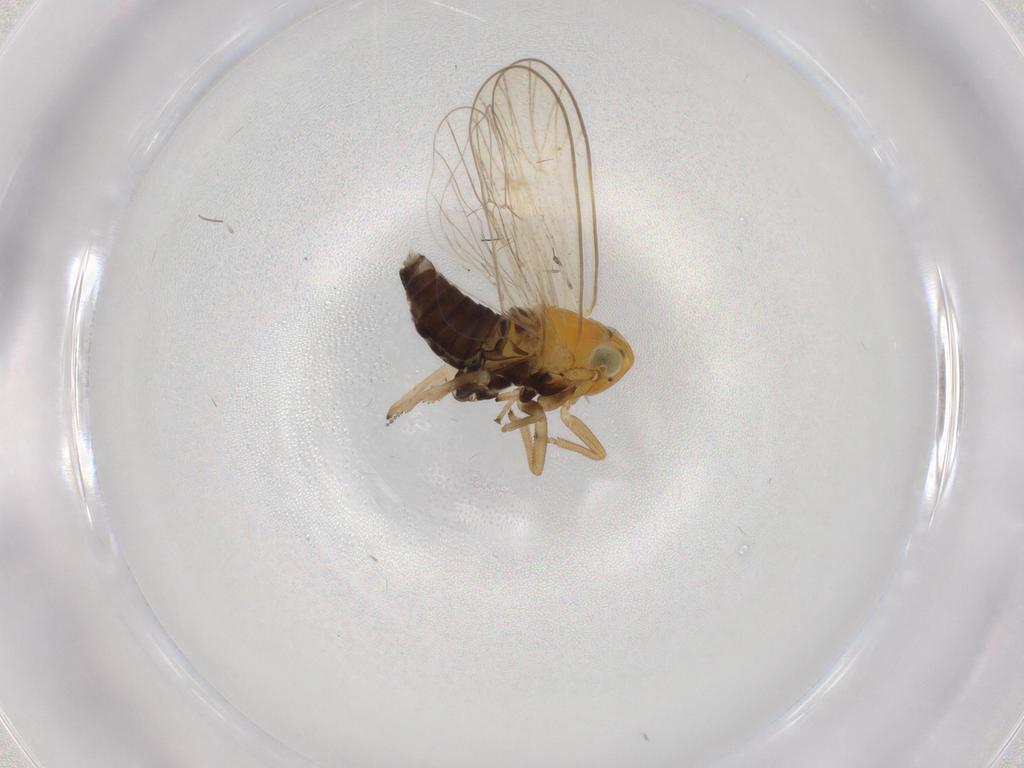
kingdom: Animalia
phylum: Arthropoda
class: Insecta
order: Hemiptera
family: Delphacidae
